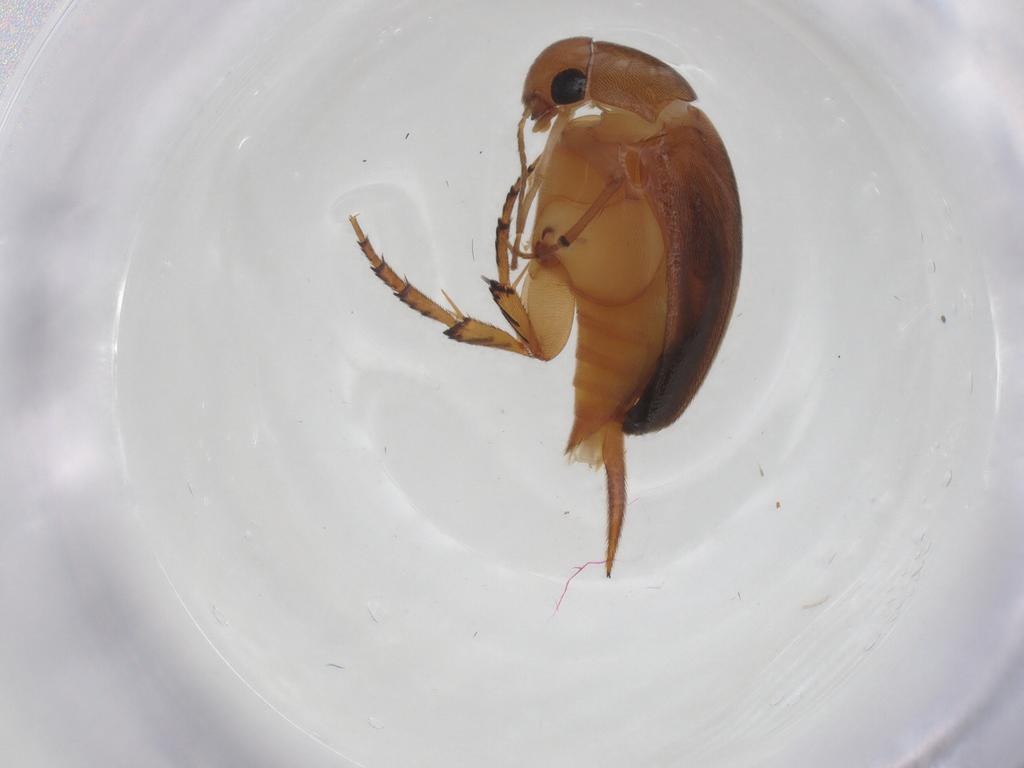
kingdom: Animalia
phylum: Arthropoda
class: Insecta
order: Coleoptera
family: Mordellidae
